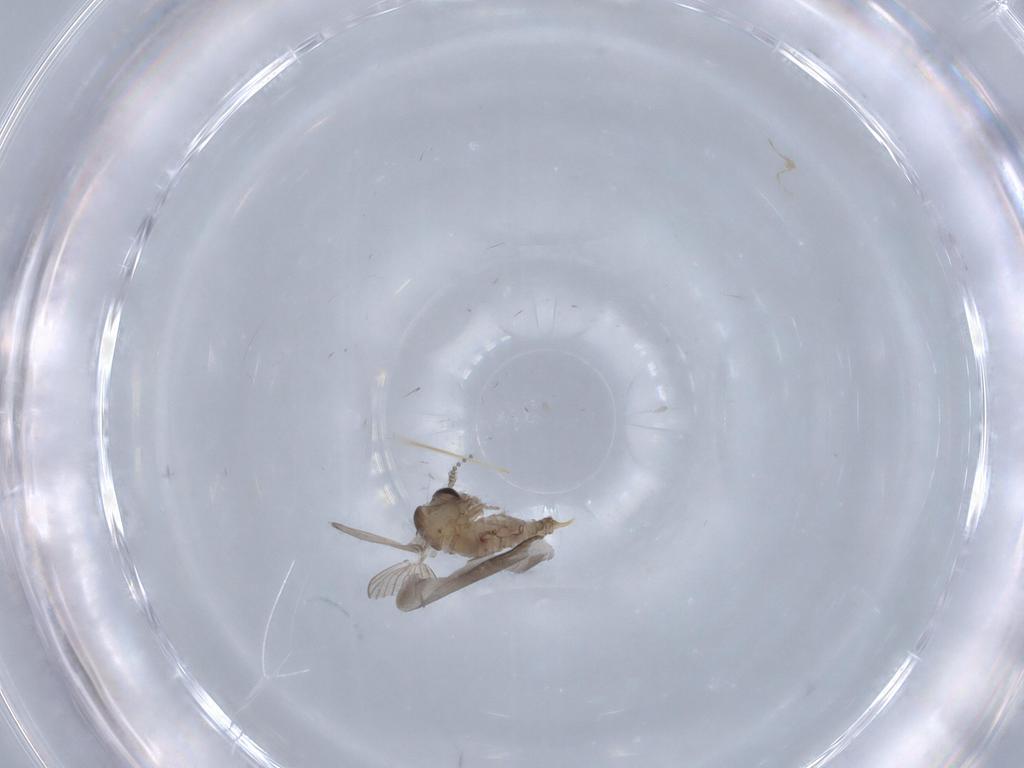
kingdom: Animalia
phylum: Arthropoda
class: Insecta
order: Diptera
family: Psychodidae
